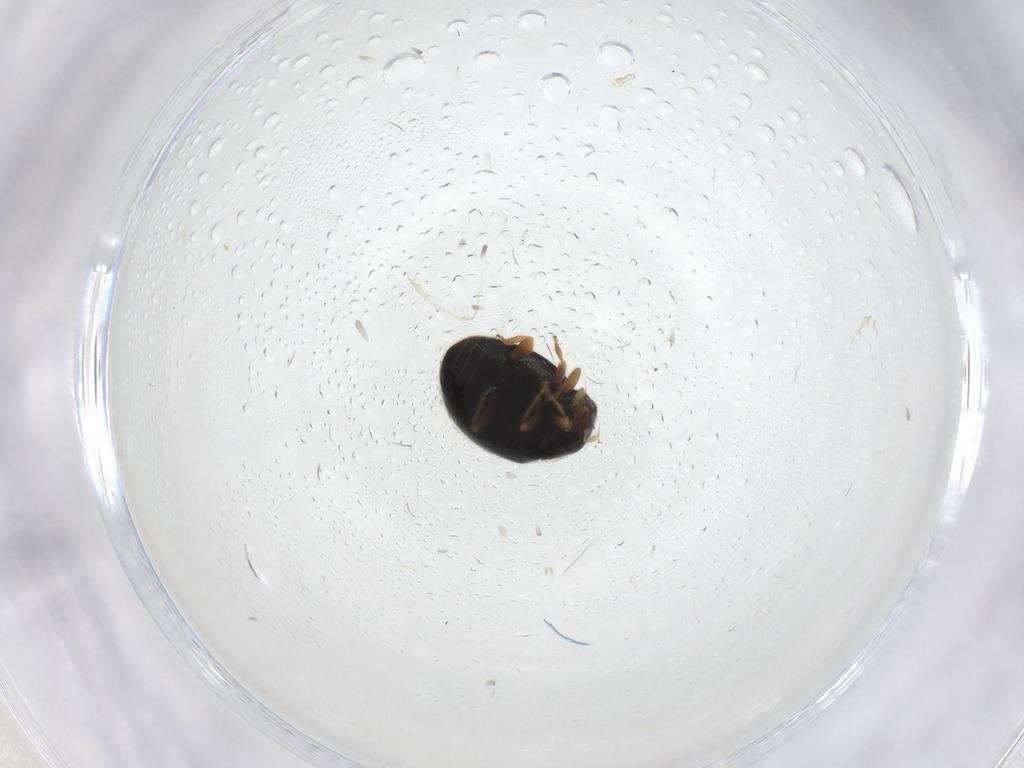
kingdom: Animalia
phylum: Arthropoda
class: Insecta
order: Coleoptera
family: Coccinellidae
